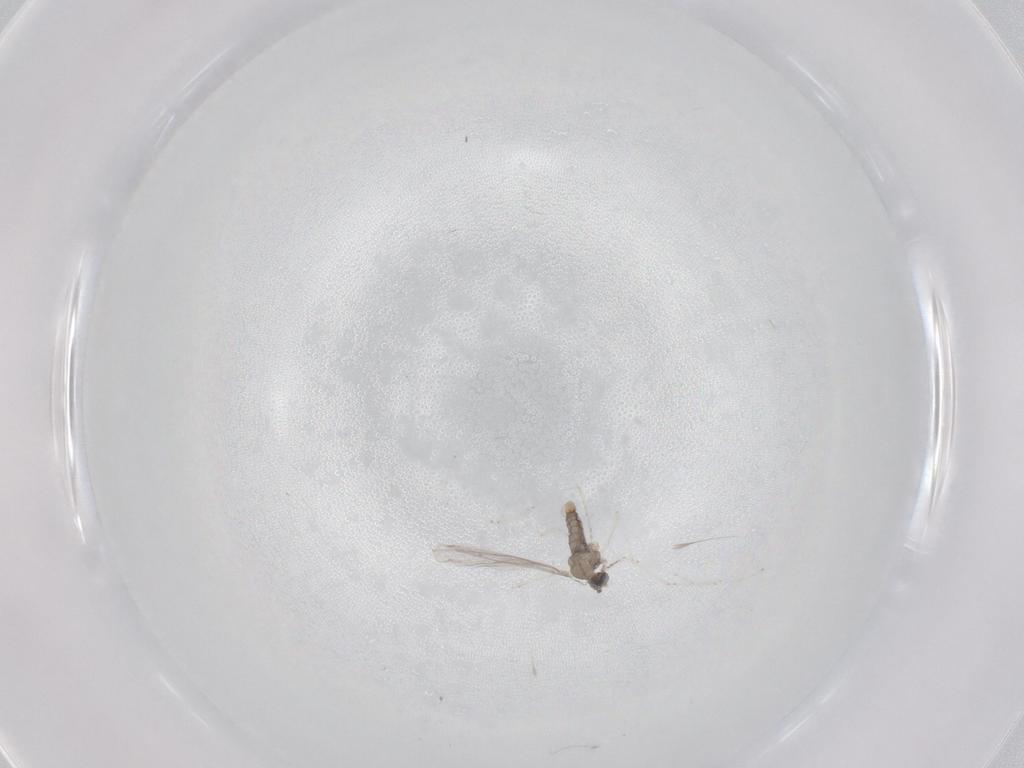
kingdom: Animalia
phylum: Arthropoda
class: Insecta
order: Diptera
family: Cecidomyiidae
